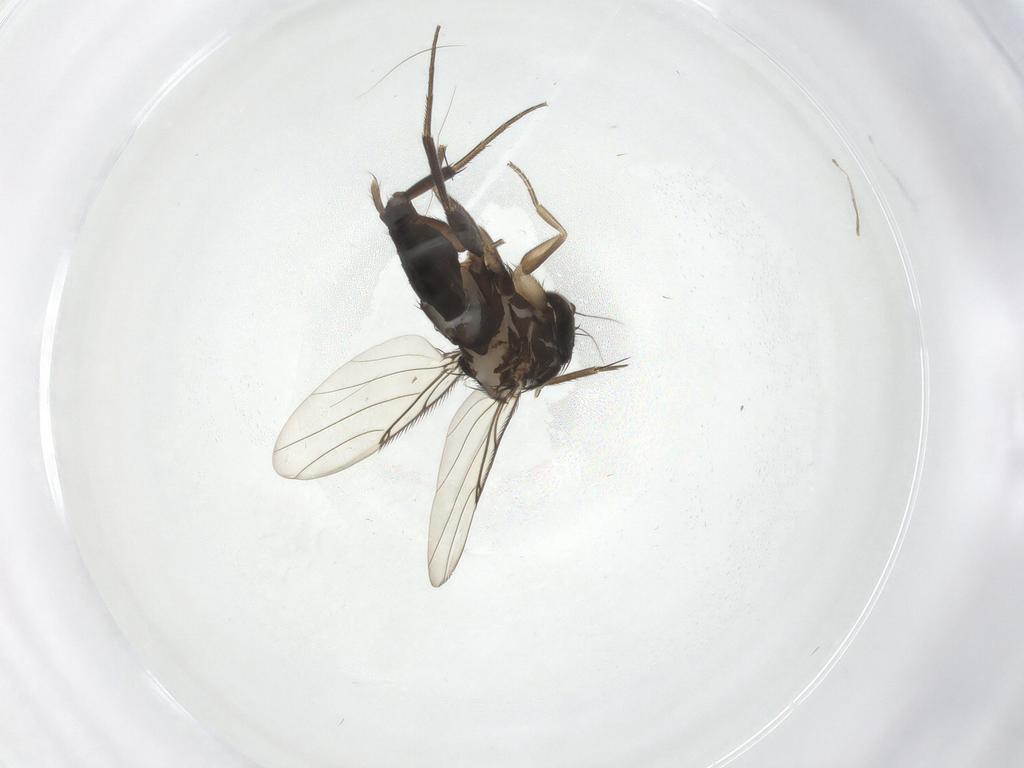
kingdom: Animalia
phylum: Arthropoda
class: Insecta
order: Diptera
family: Phoridae
